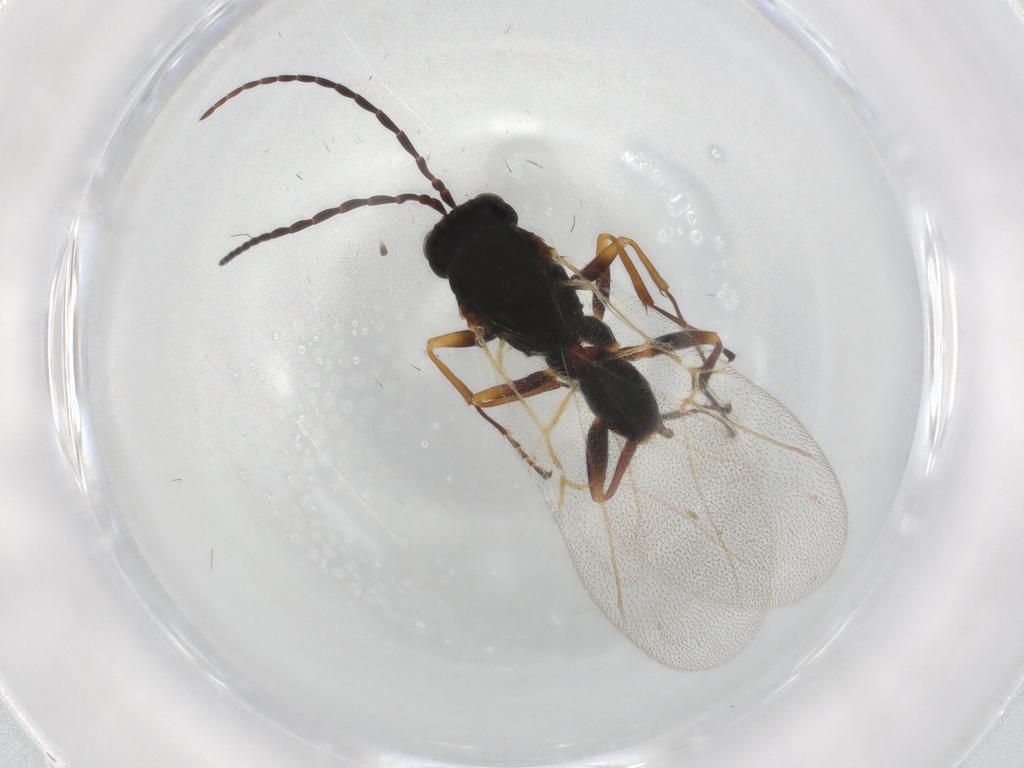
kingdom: Animalia
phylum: Arthropoda
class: Insecta
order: Hymenoptera
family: Cynipidae
